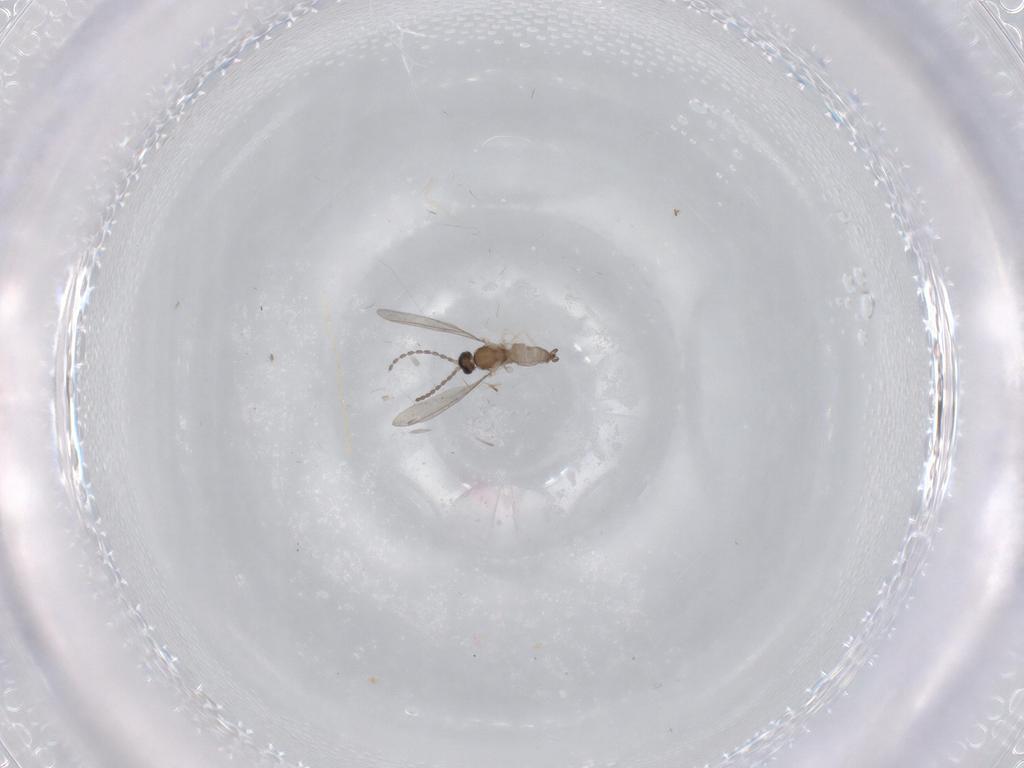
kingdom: Animalia
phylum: Arthropoda
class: Insecta
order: Diptera
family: Cecidomyiidae
